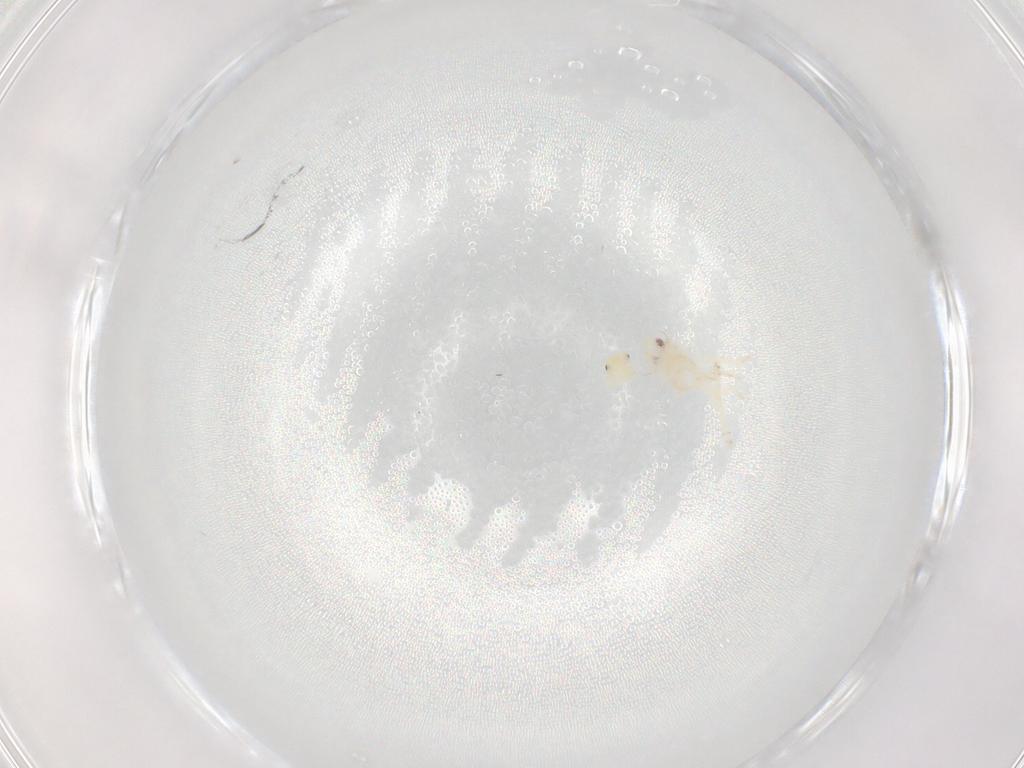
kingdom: Animalia
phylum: Arthropoda
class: Insecta
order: Hemiptera
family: Flatidae
